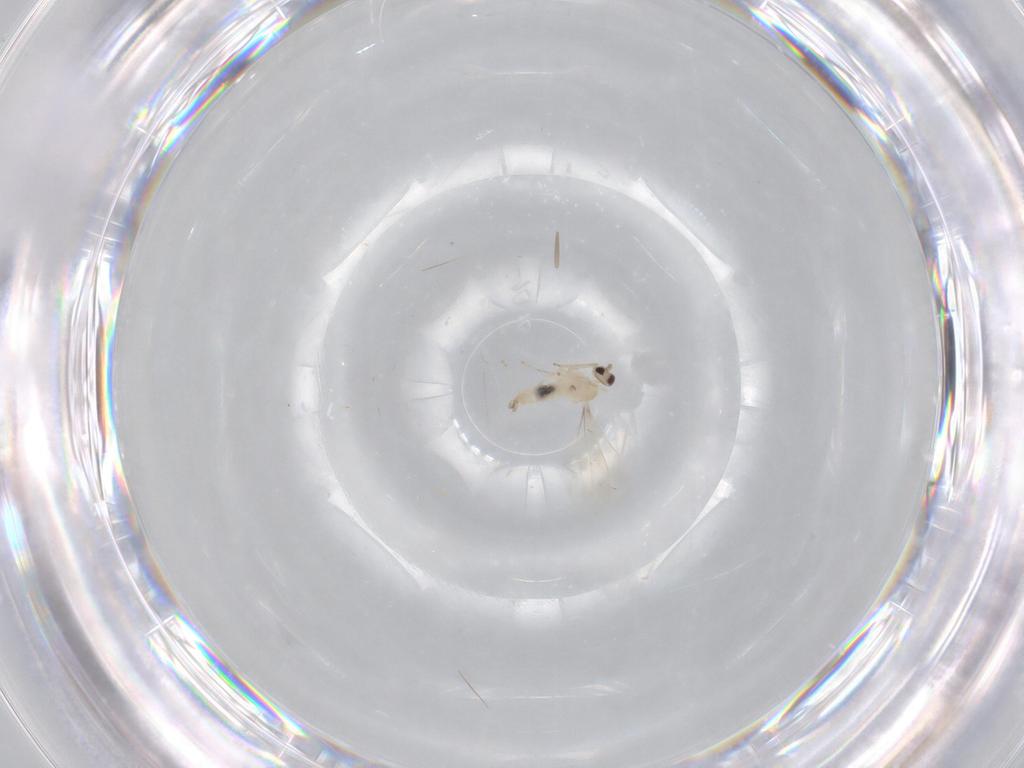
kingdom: Animalia
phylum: Arthropoda
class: Insecta
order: Diptera
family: Cecidomyiidae
